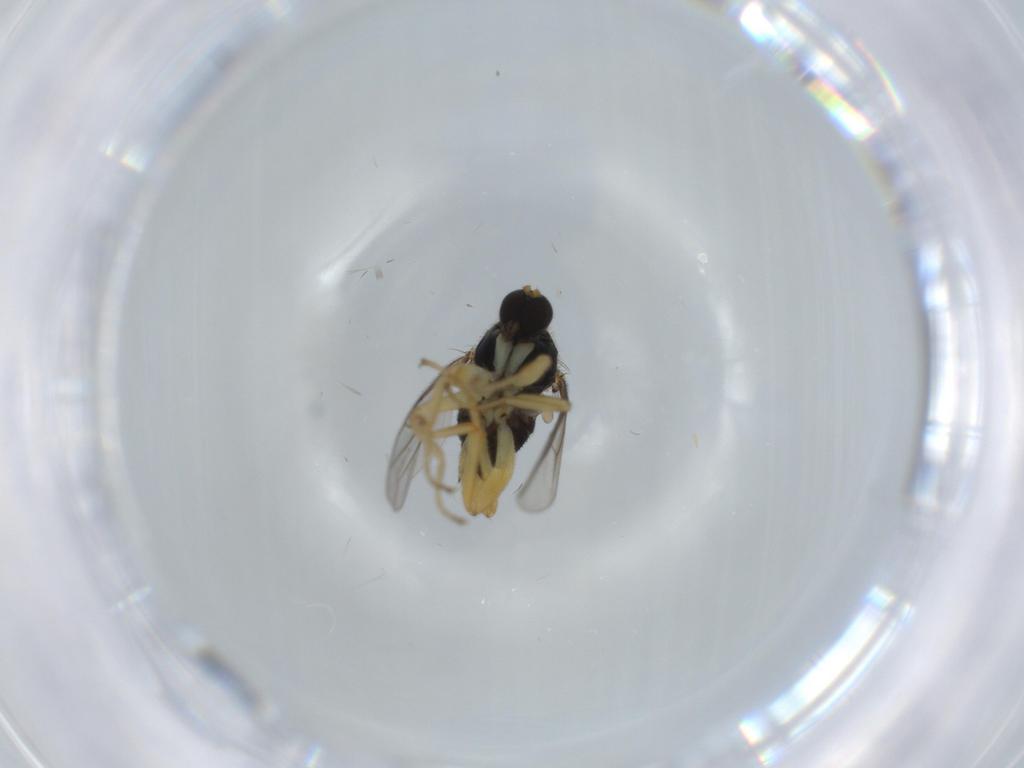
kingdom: Animalia
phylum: Arthropoda
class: Insecta
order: Diptera
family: Hybotidae
